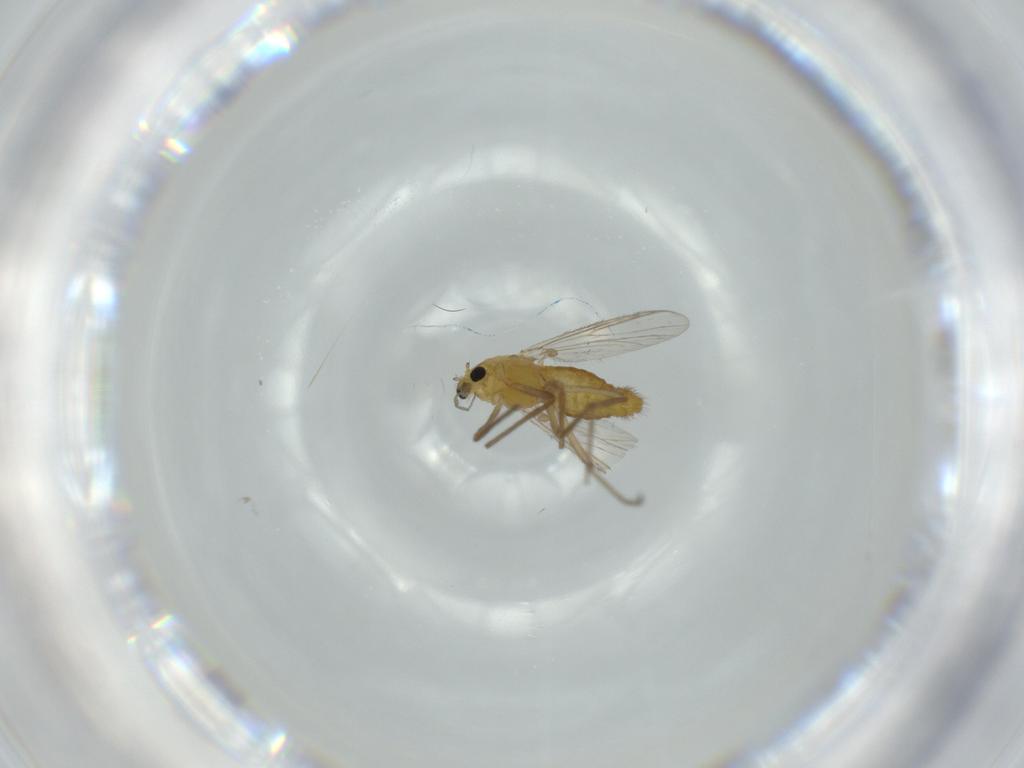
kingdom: Animalia
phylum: Arthropoda
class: Insecta
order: Diptera
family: Chironomidae
